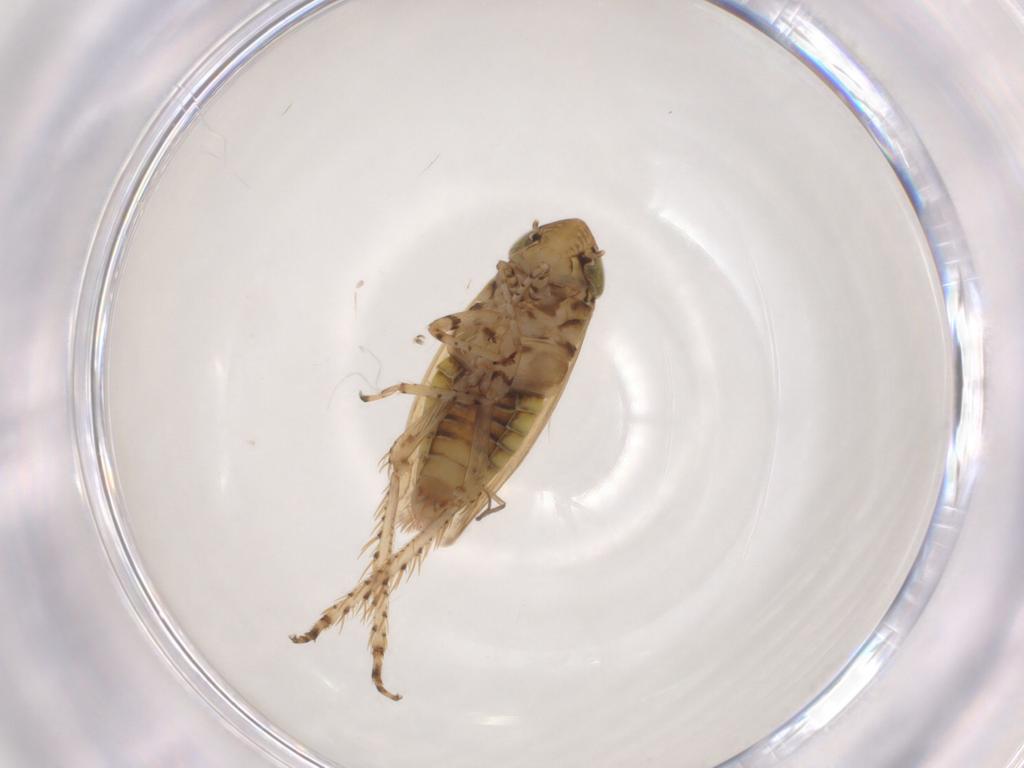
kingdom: Animalia
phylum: Arthropoda
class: Insecta
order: Hemiptera
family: Cicadellidae
